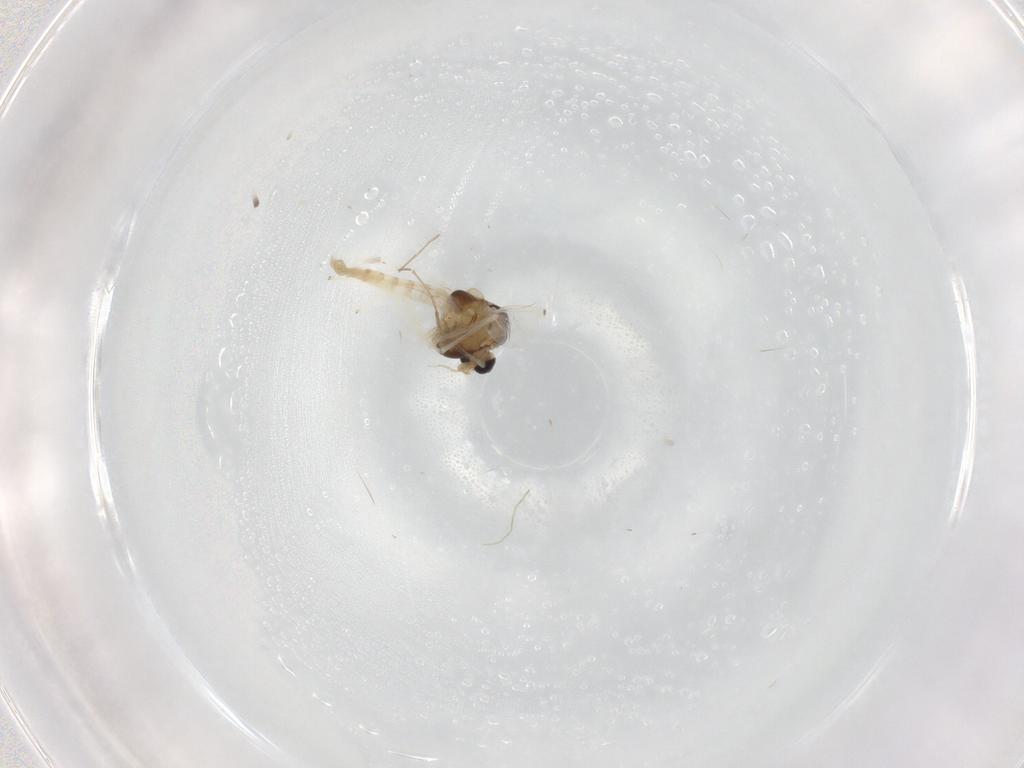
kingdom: Animalia
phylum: Arthropoda
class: Insecta
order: Diptera
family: Chironomidae
